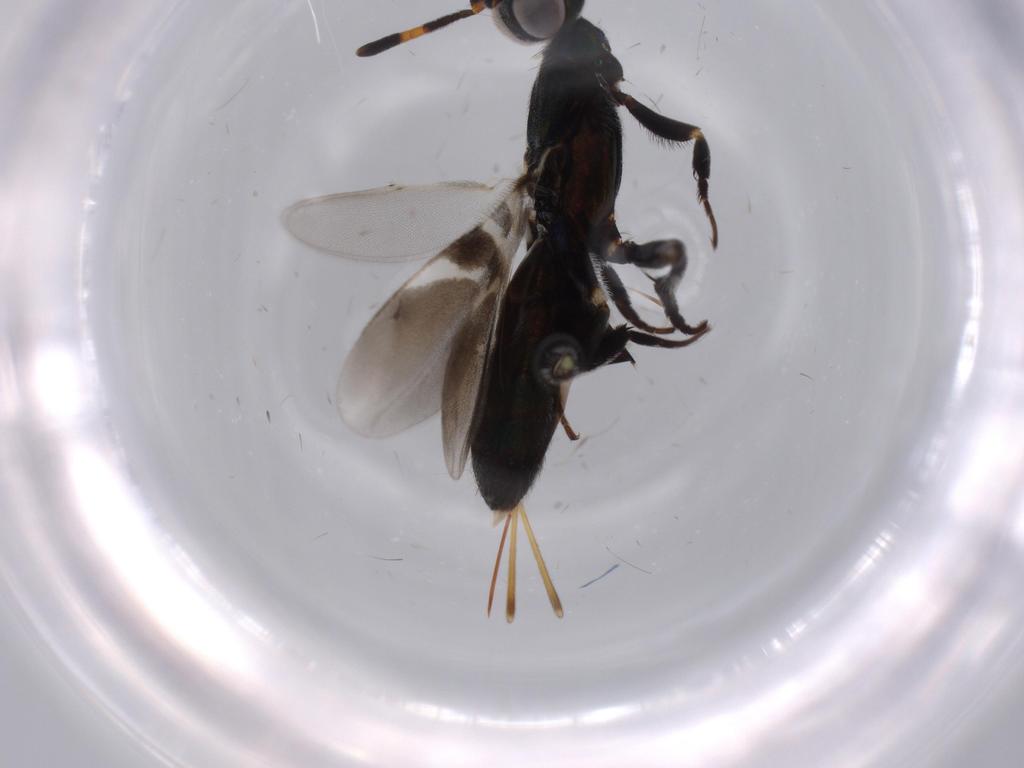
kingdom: Animalia
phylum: Arthropoda
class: Insecta
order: Hymenoptera
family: Scelionidae
